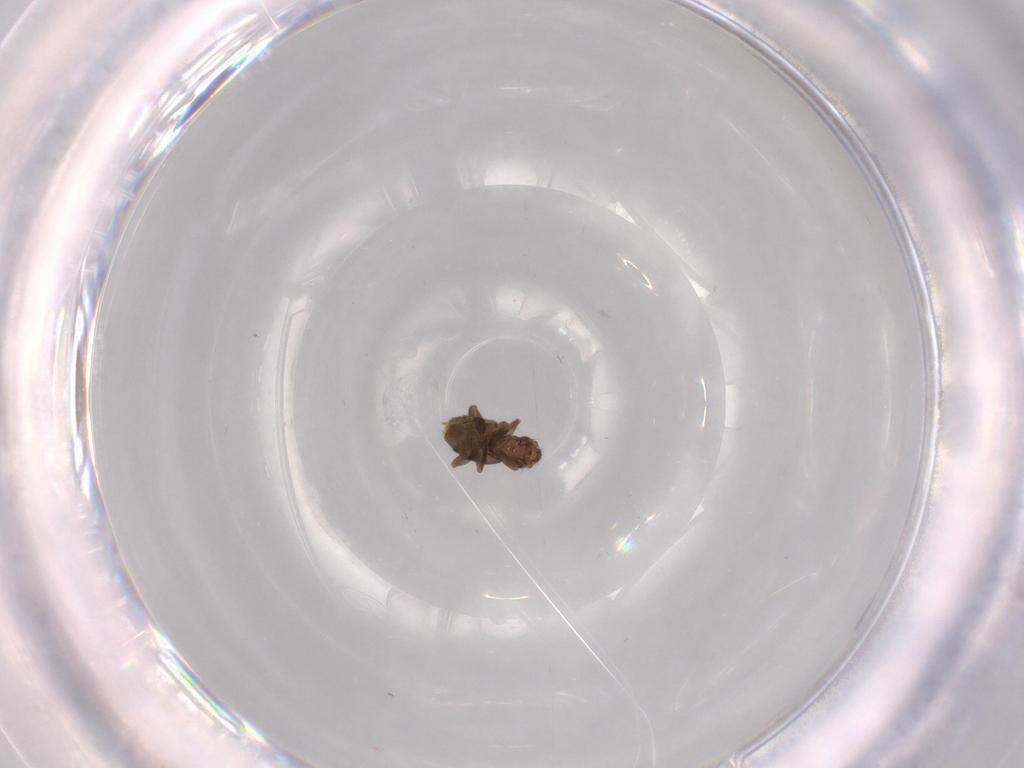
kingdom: Animalia
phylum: Arthropoda
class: Insecta
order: Diptera
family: Phoridae
